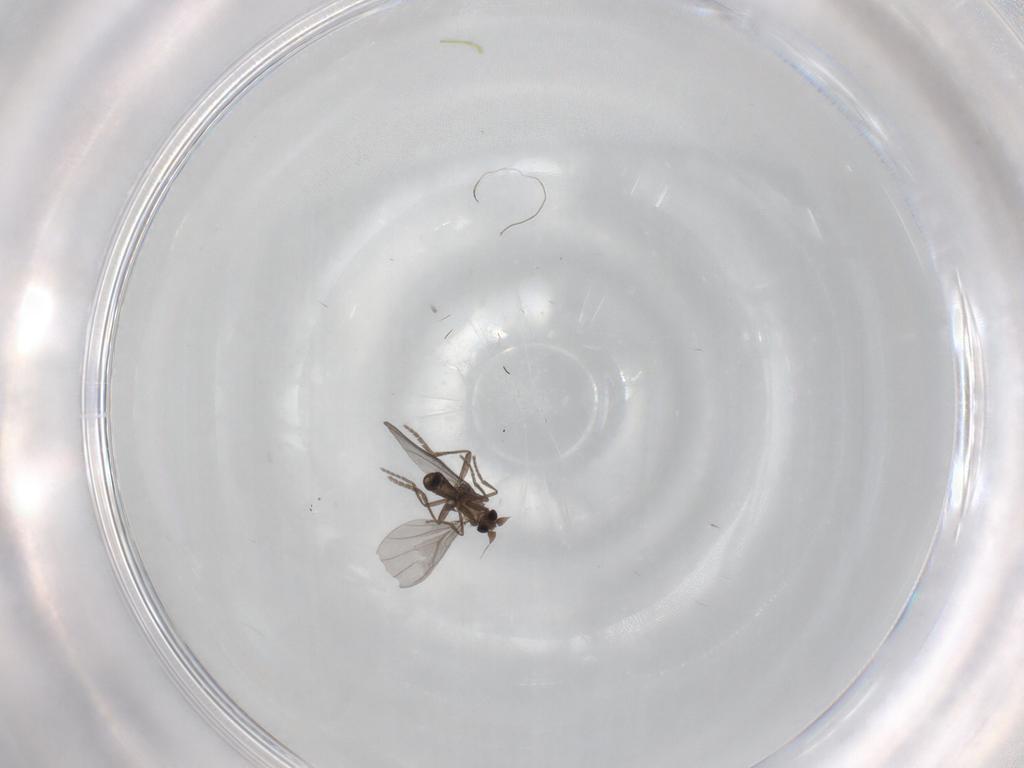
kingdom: Animalia
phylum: Arthropoda
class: Insecta
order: Diptera
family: Phoridae
